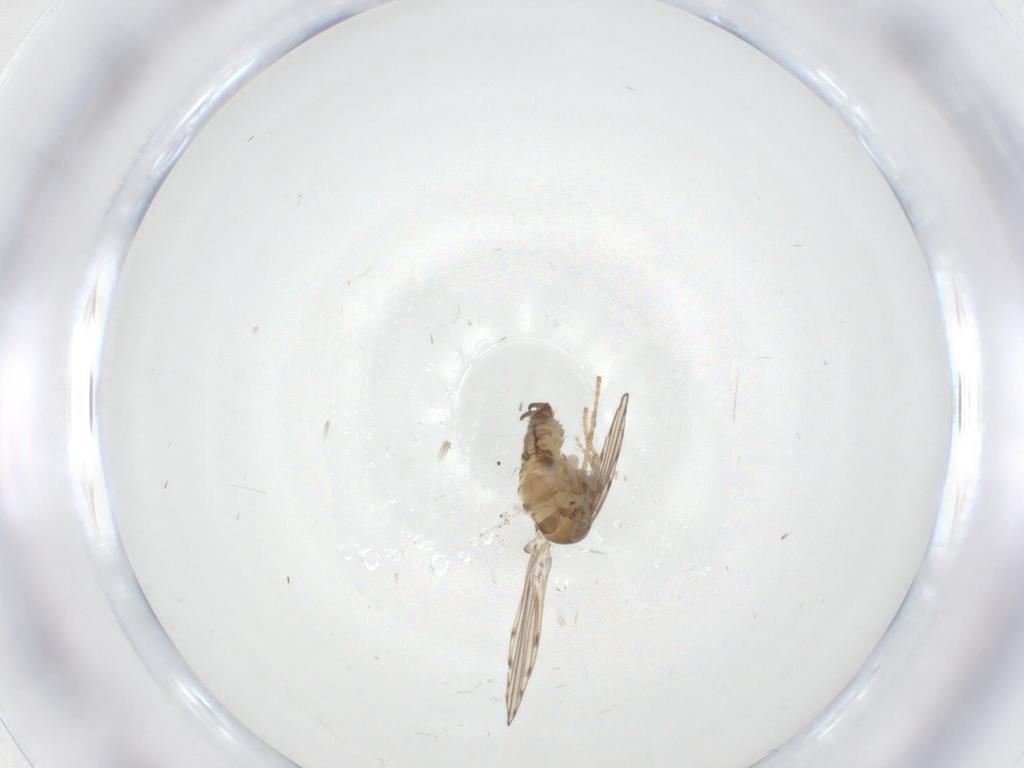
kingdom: Animalia
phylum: Arthropoda
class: Insecta
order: Diptera
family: Psychodidae
